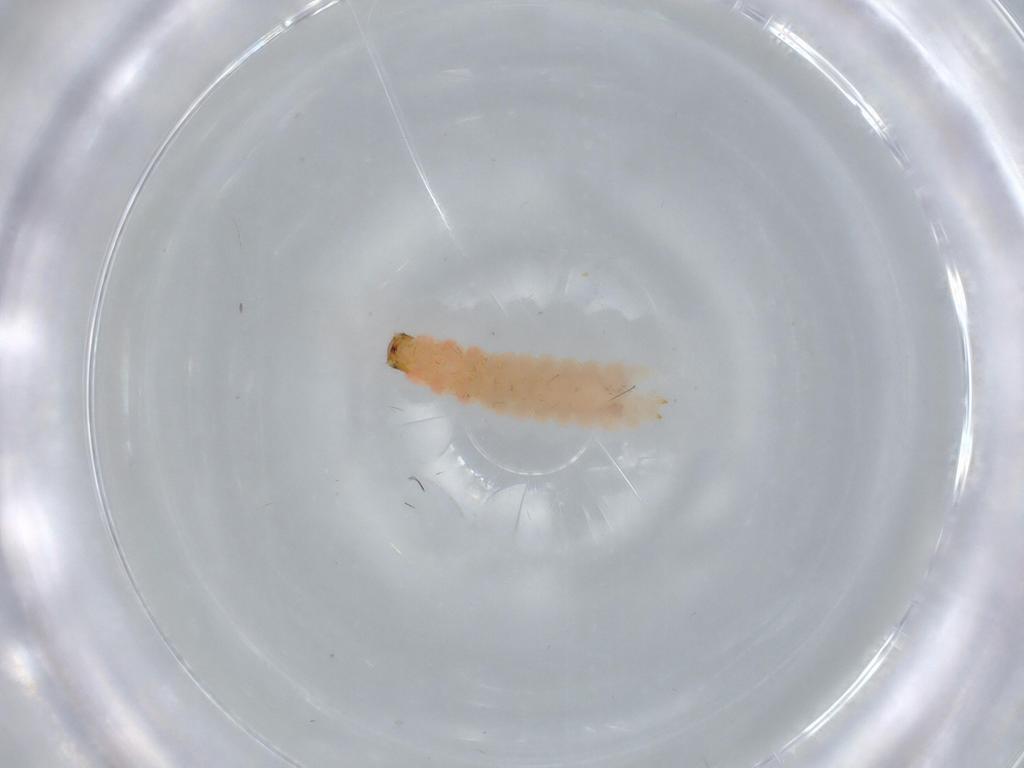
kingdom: Animalia
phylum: Arthropoda
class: Insecta
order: Coleoptera
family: Melyridae
